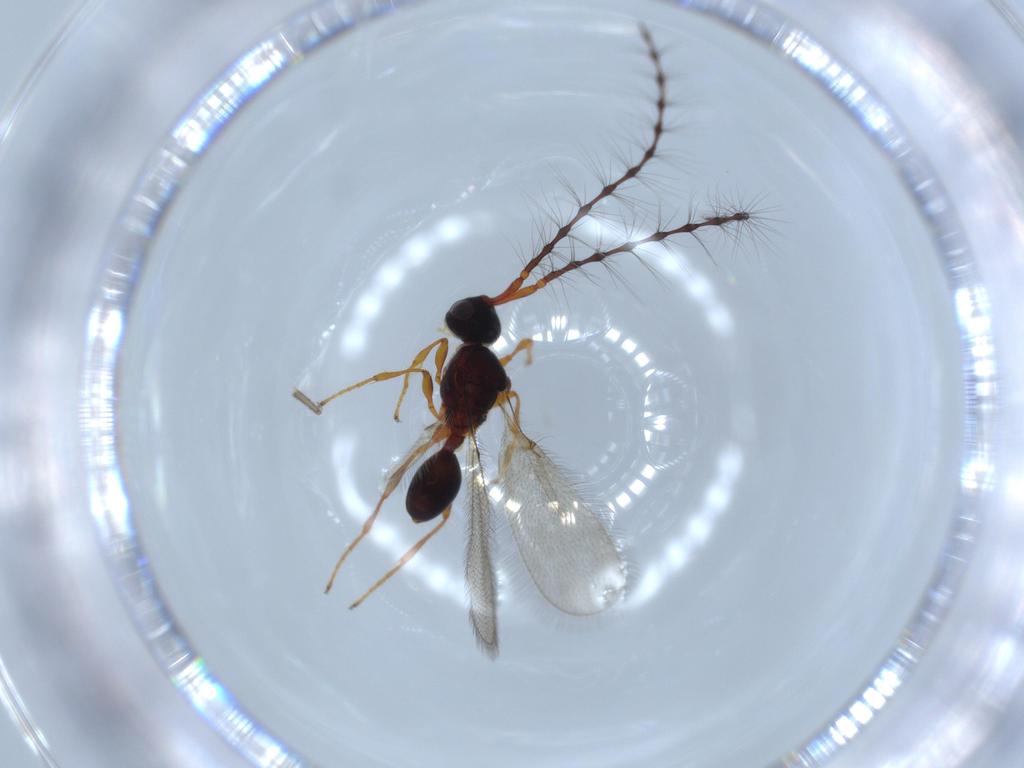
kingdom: Animalia
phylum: Arthropoda
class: Insecta
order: Hymenoptera
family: Diapriidae
